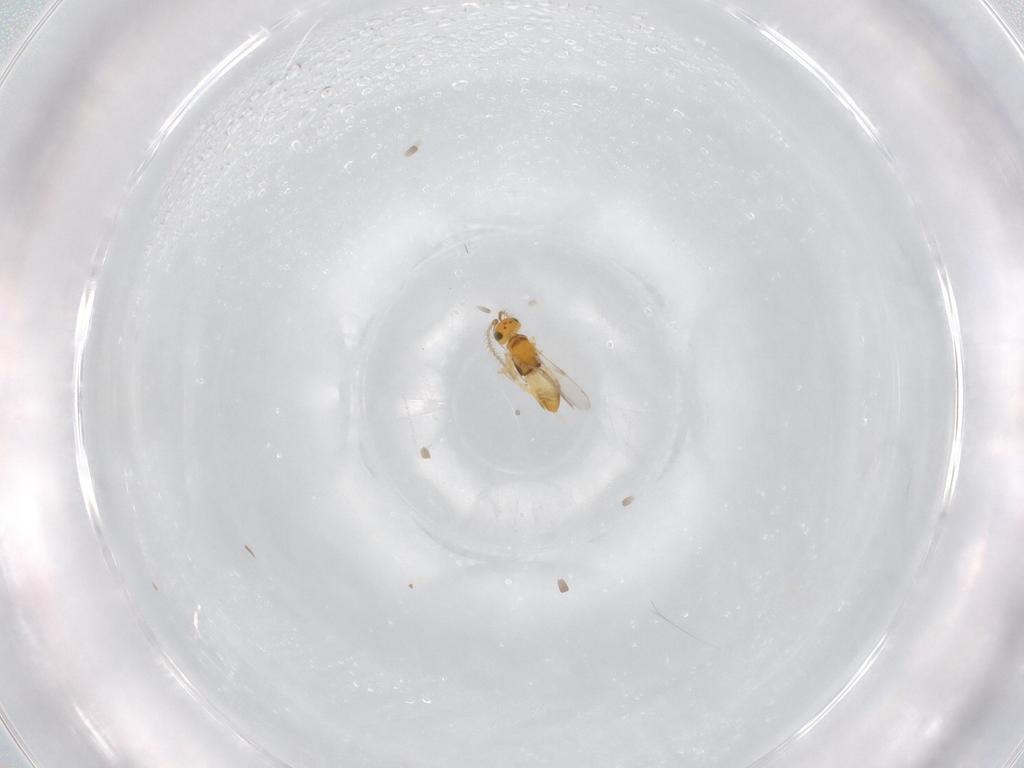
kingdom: Animalia
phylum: Arthropoda
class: Insecta
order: Hymenoptera
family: Encyrtidae
